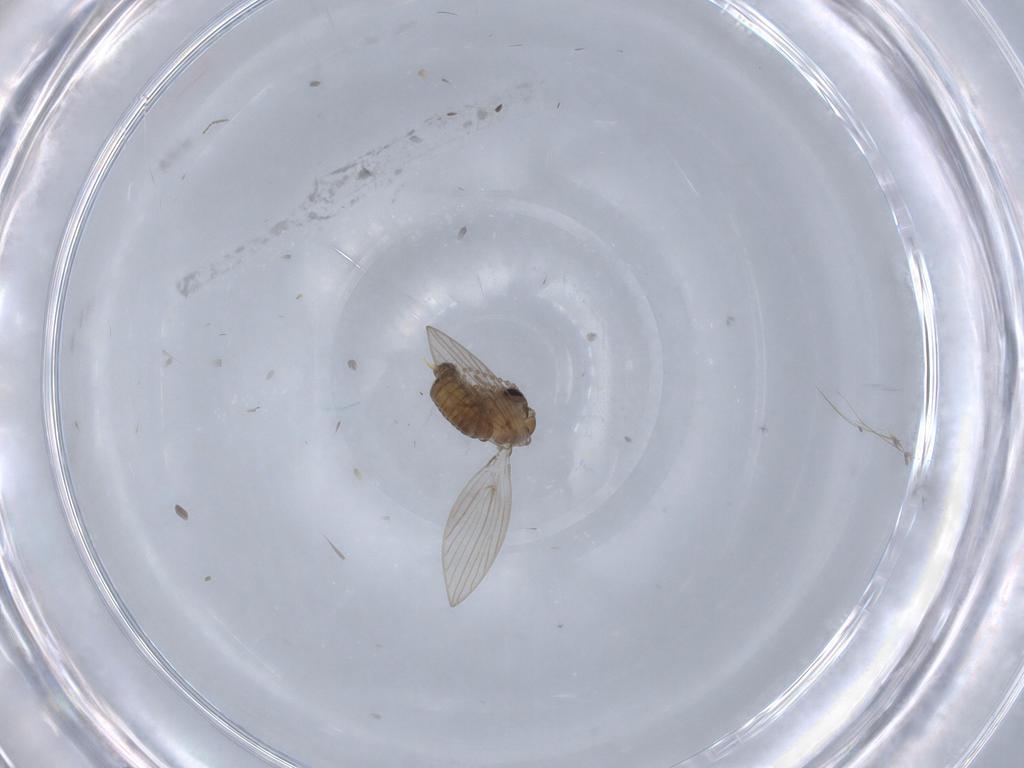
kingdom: Animalia
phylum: Arthropoda
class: Insecta
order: Diptera
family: Psychodidae
